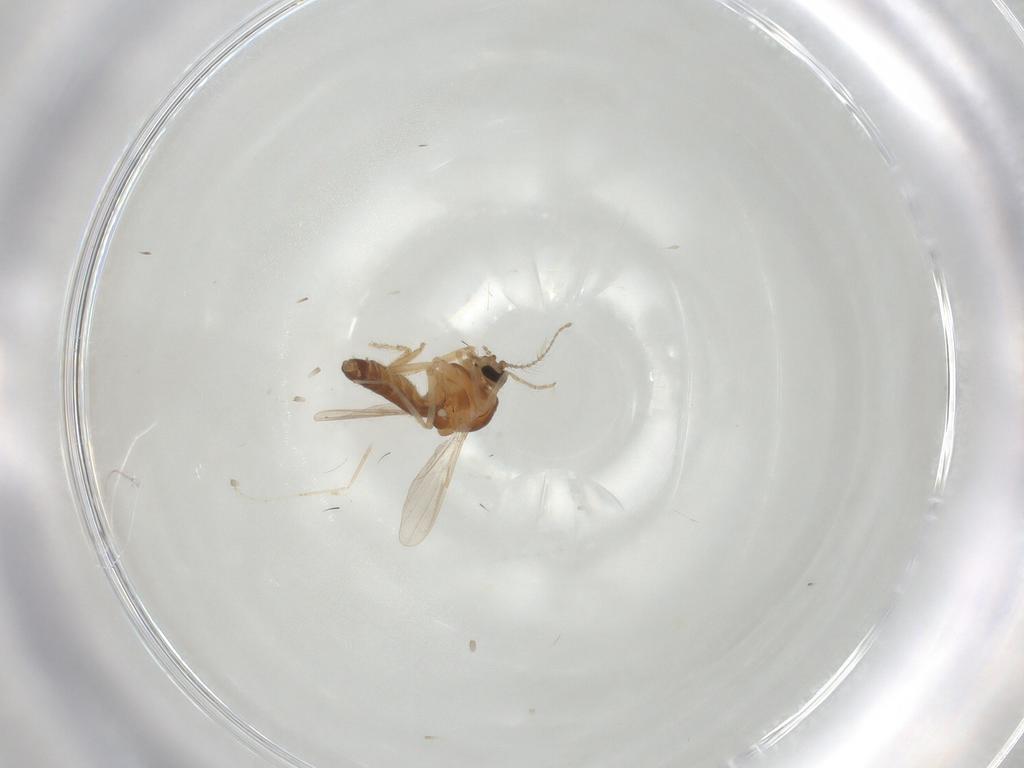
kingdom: Animalia
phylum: Arthropoda
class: Insecta
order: Diptera
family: Ceratopogonidae
